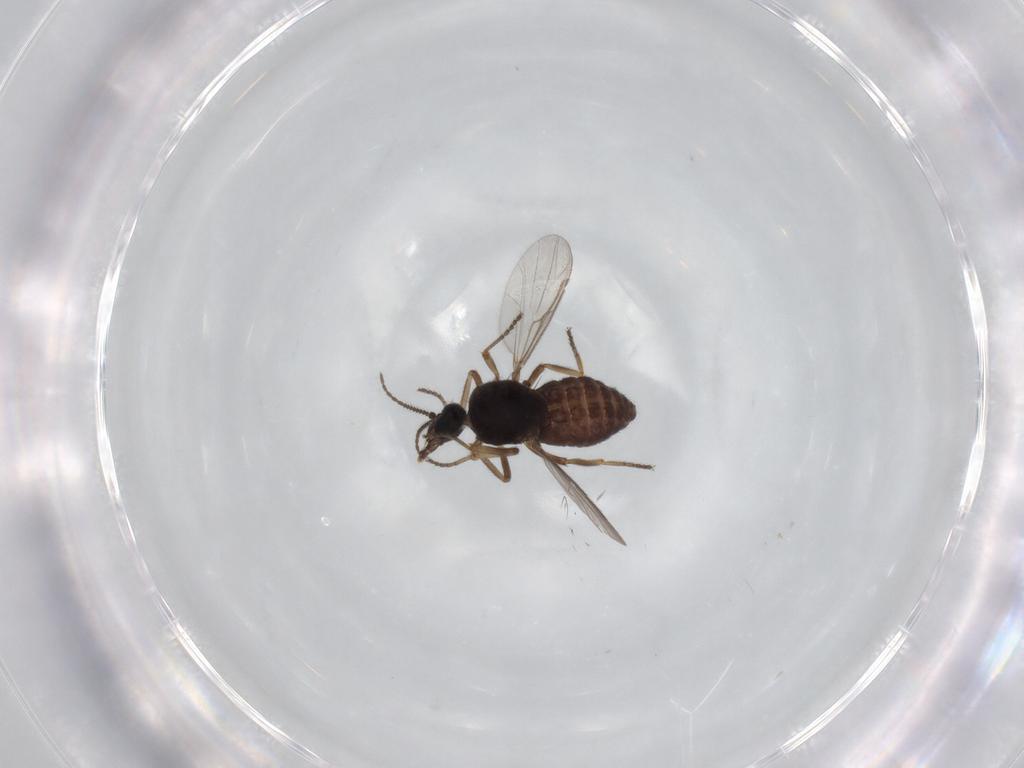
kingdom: Animalia
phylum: Arthropoda
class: Insecta
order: Diptera
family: Ceratopogonidae
